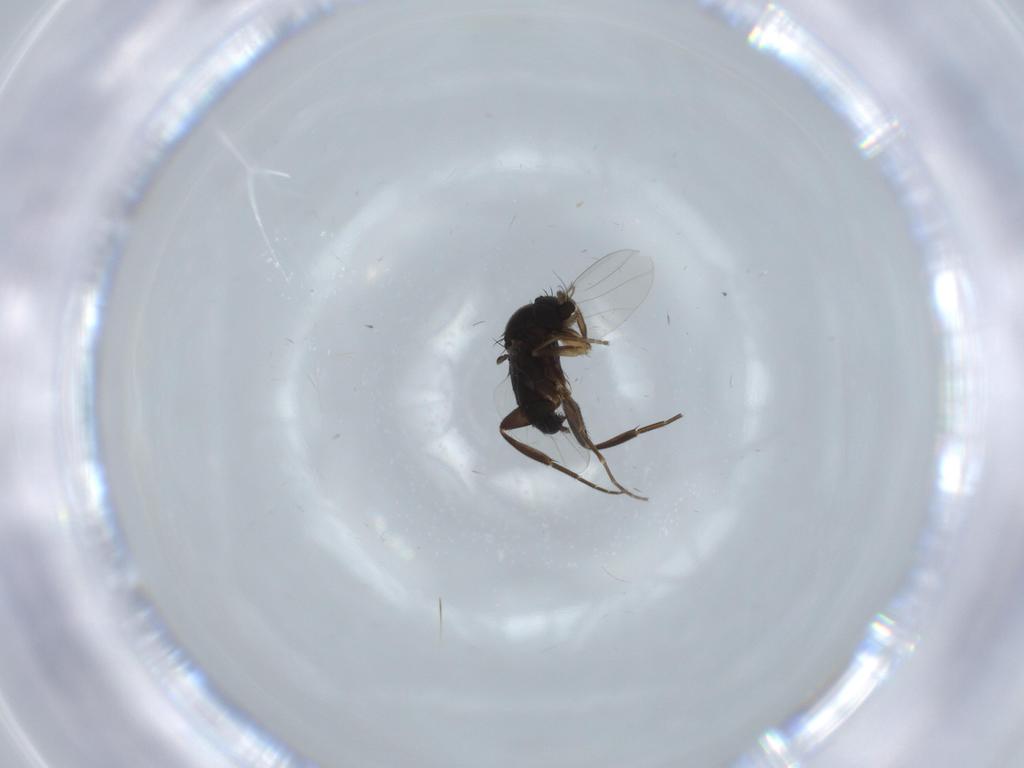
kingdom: Animalia
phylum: Arthropoda
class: Insecta
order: Diptera
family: Phoridae
